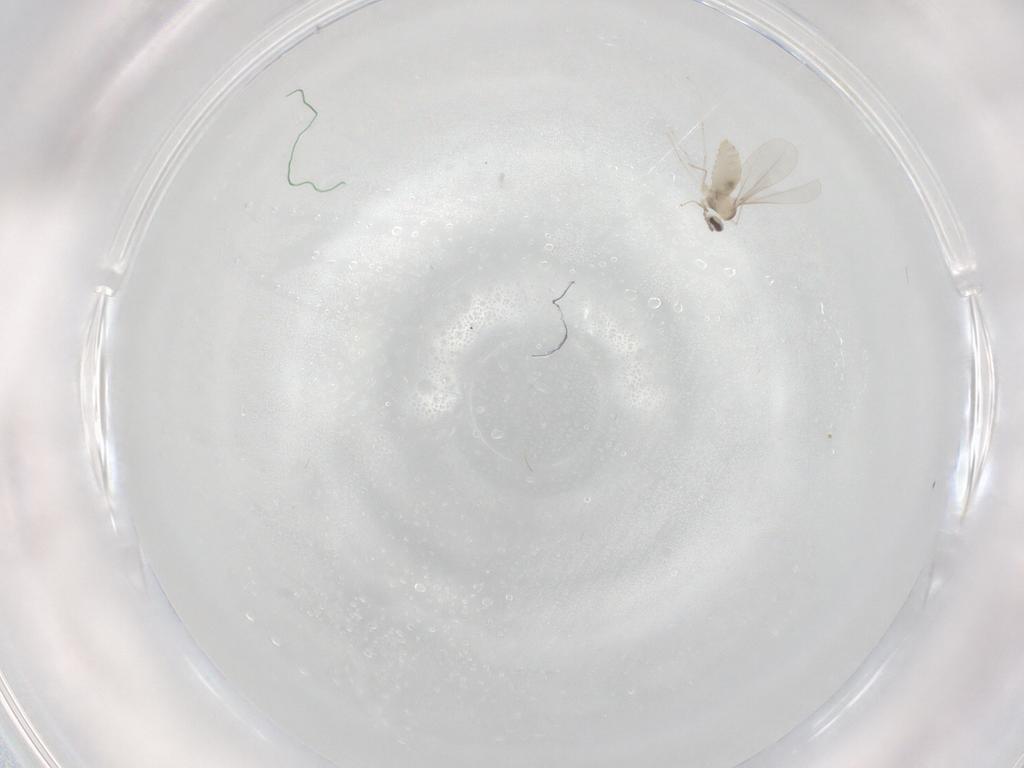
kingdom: Animalia
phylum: Arthropoda
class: Insecta
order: Diptera
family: Cecidomyiidae
